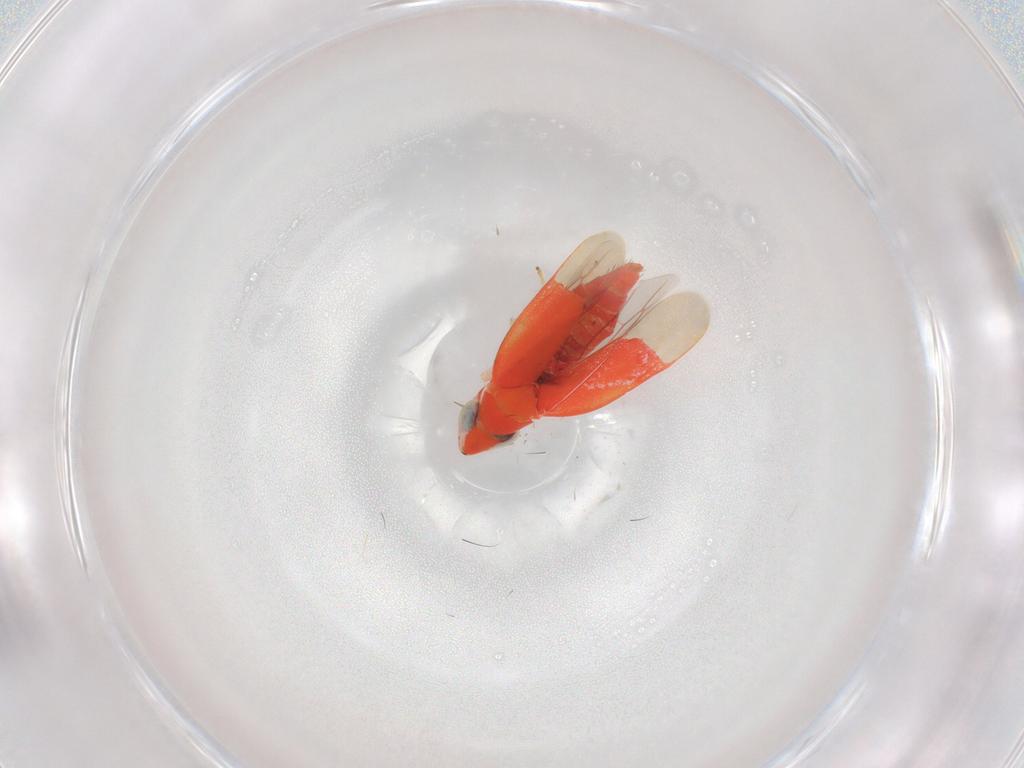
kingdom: Animalia
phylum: Arthropoda
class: Insecta
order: Hemiptera
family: Cicadellidae
